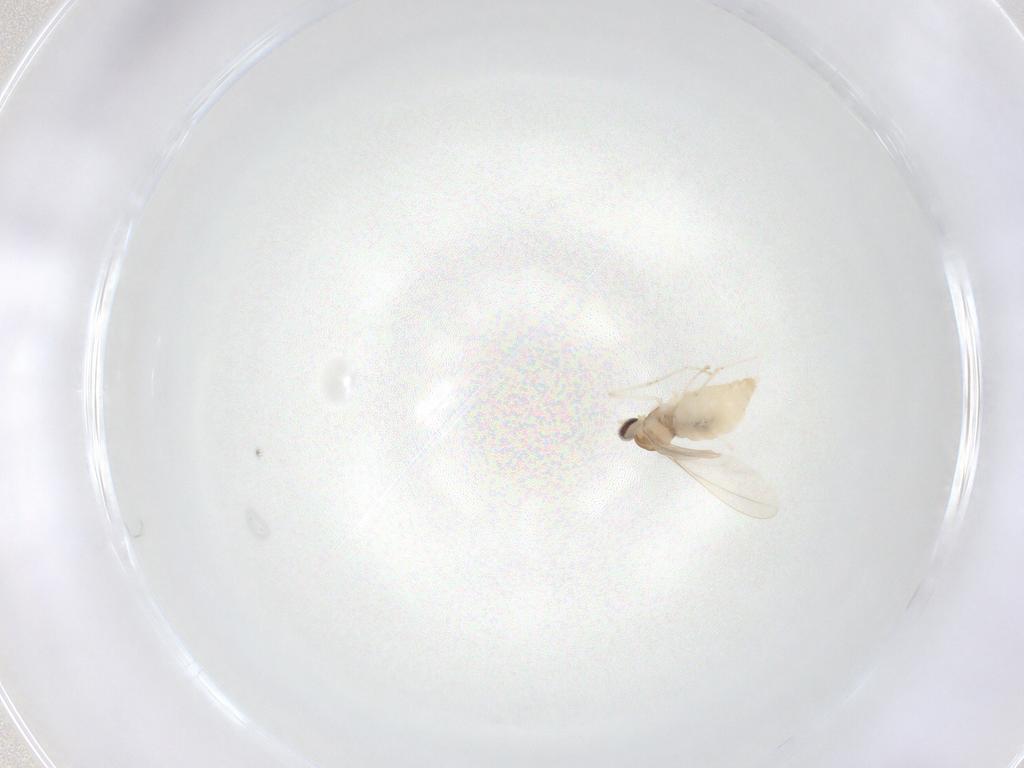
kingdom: Animalia
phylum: Arthropoda
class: Insecta
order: Diptera
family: Cecidomyiidae
